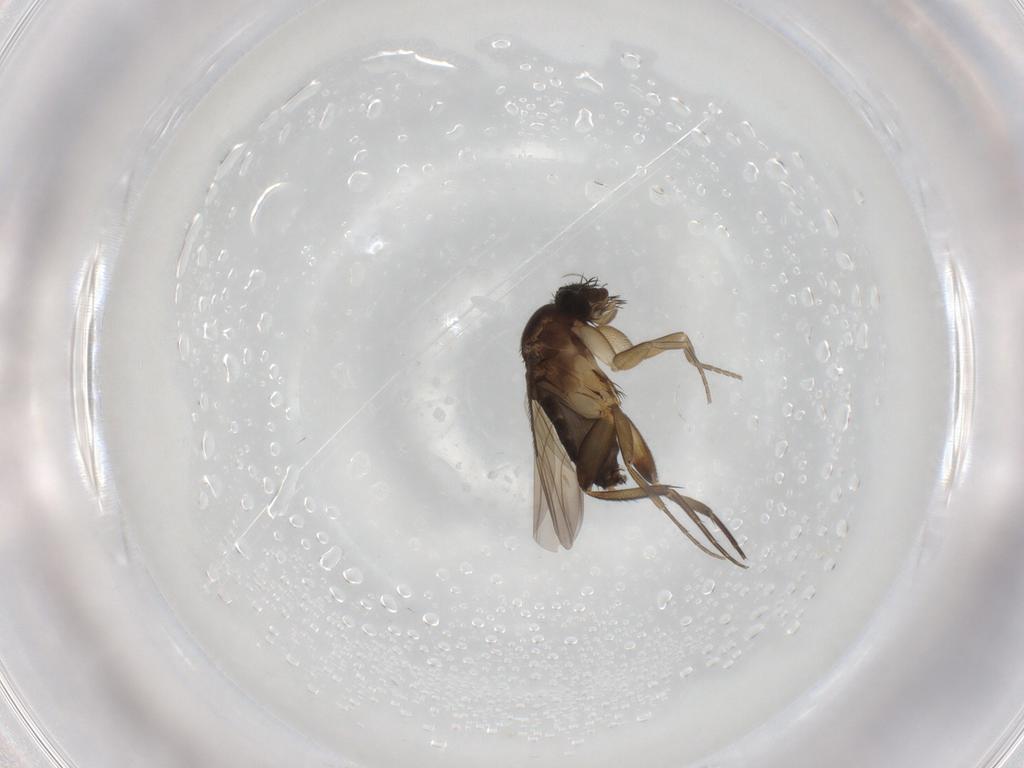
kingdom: Animalia
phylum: Arthropoda
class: Insecta
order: Diptera
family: Phoridae
